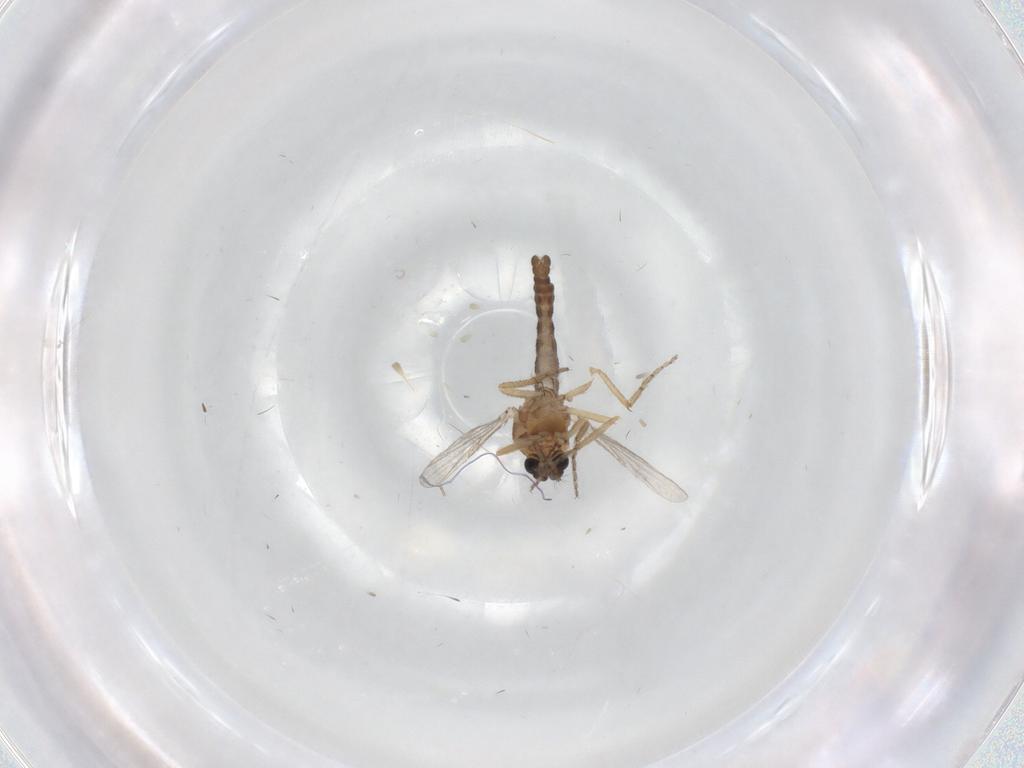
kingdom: Animalia
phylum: Arthropoda
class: Insecta
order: Diptera
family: Ceratopogonidae
